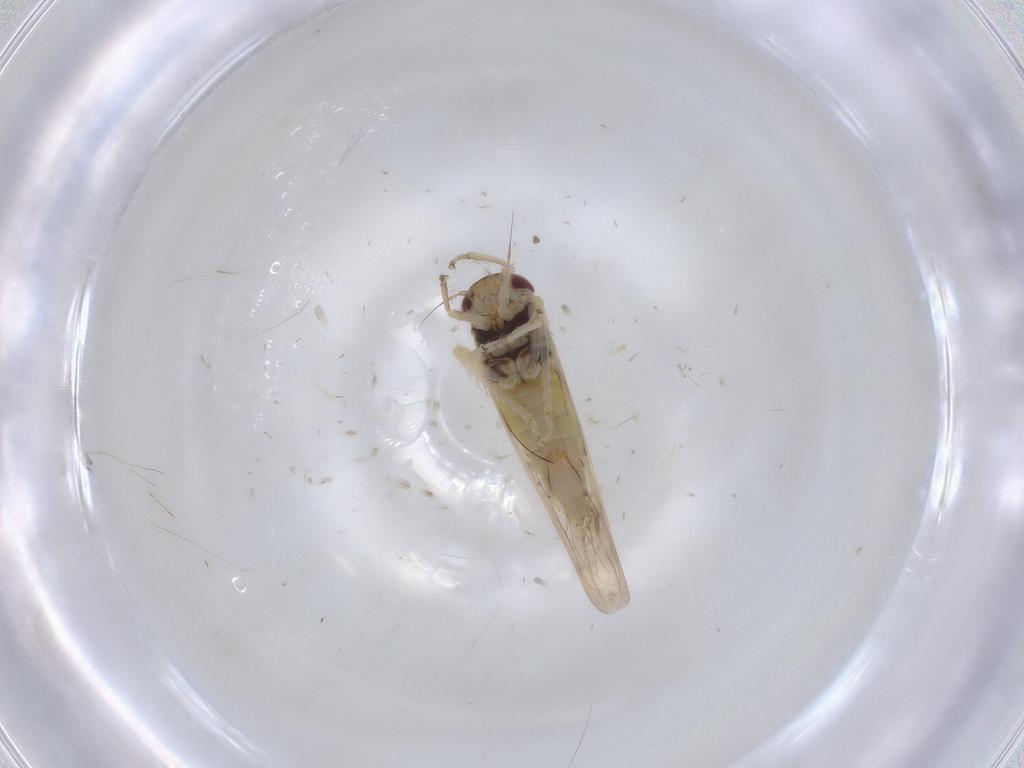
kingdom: Animalia
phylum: Arthropoda
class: Insecta
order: Hemiptera
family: Cicadellidae
